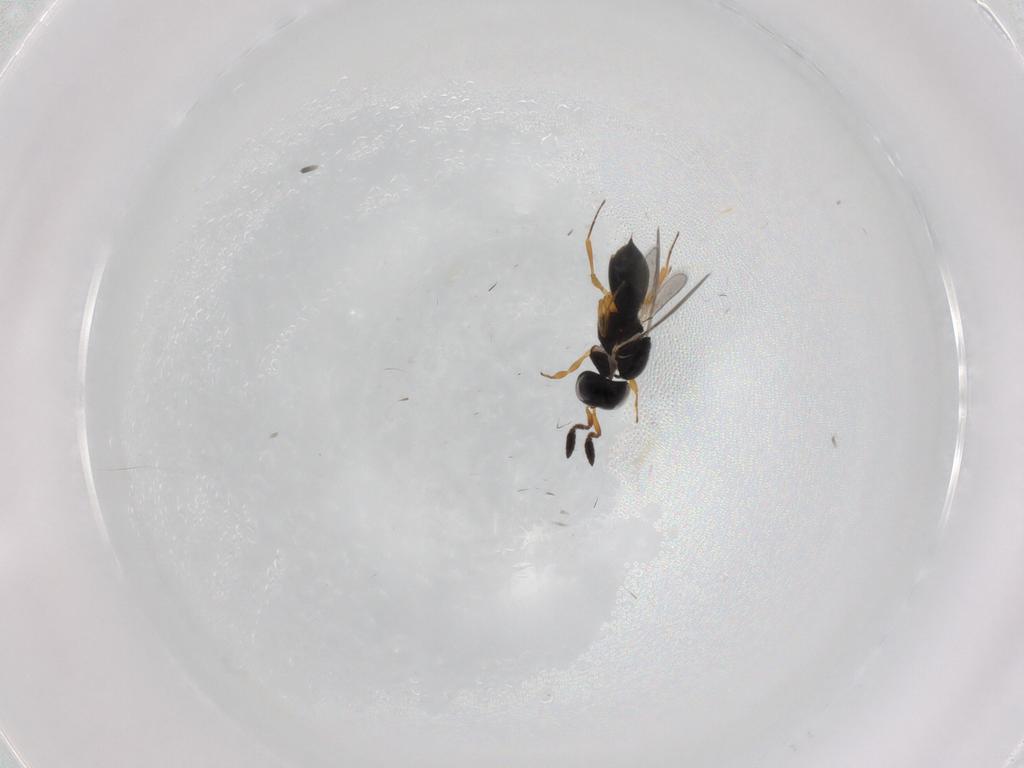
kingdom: Animalia
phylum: Arthropoda
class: Insecta
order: Hymenoptera
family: Scelionidae
